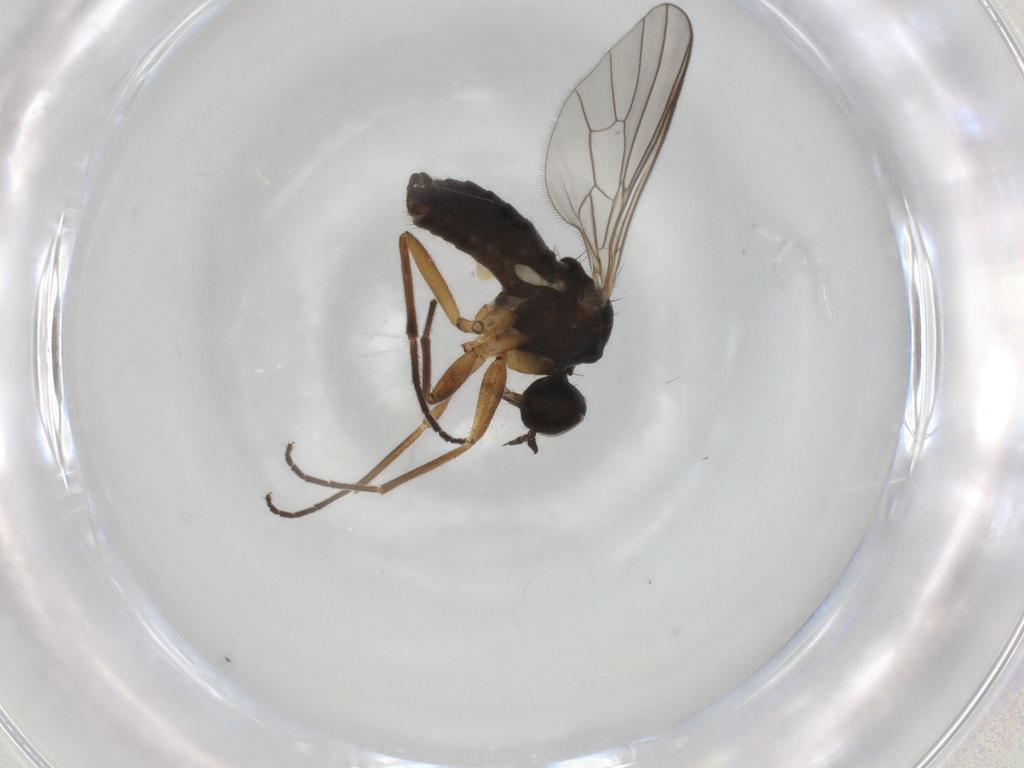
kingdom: Animalia
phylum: Arthropoda
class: Insecta
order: Diptera
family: Empididae
